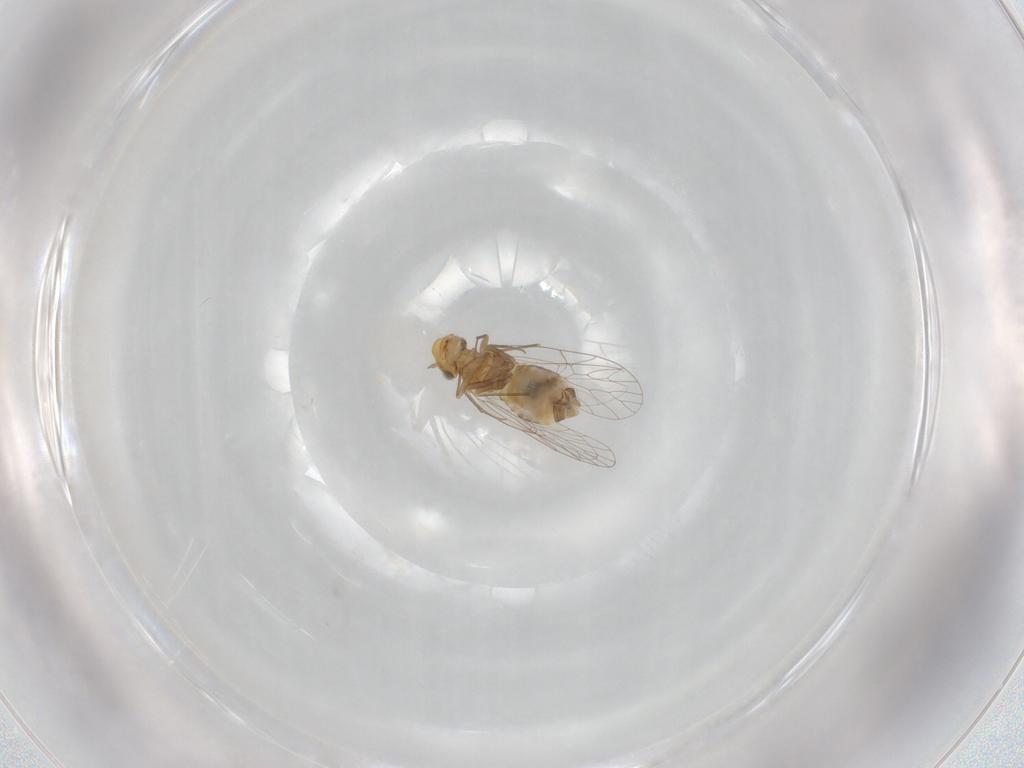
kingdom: Animalia
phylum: Arthropoda
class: Insecta
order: Psocodea
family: Prionoglarididae
